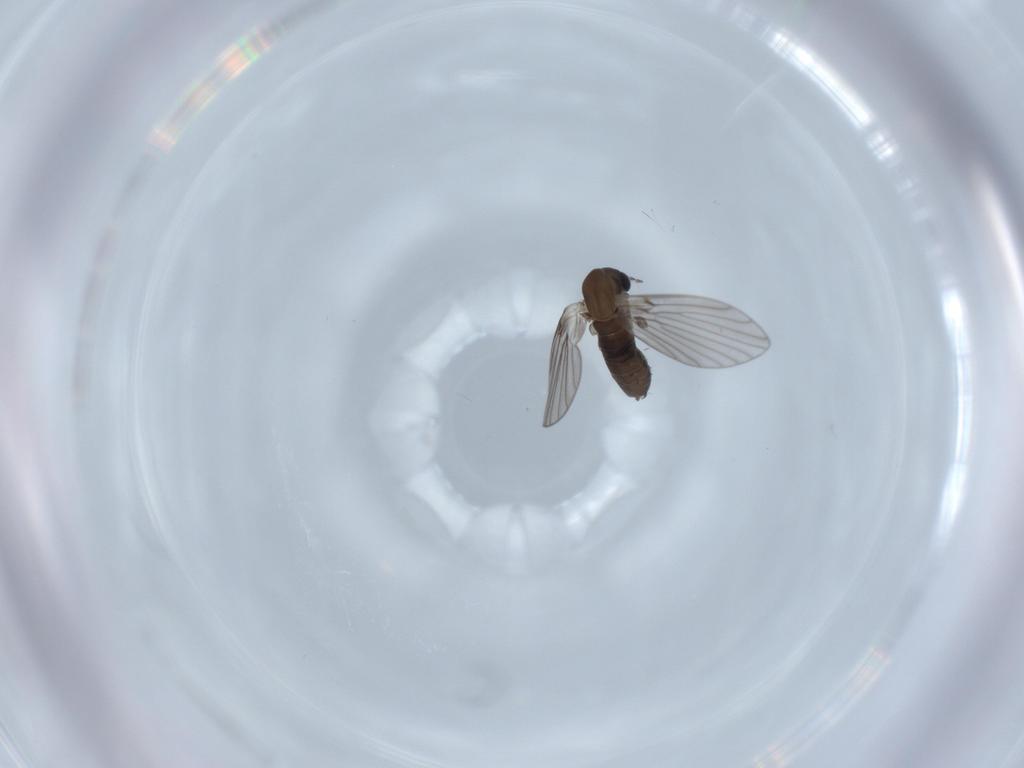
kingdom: Animalia
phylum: Arthropoda
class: Insecta
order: Diptera
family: Psychodidae
